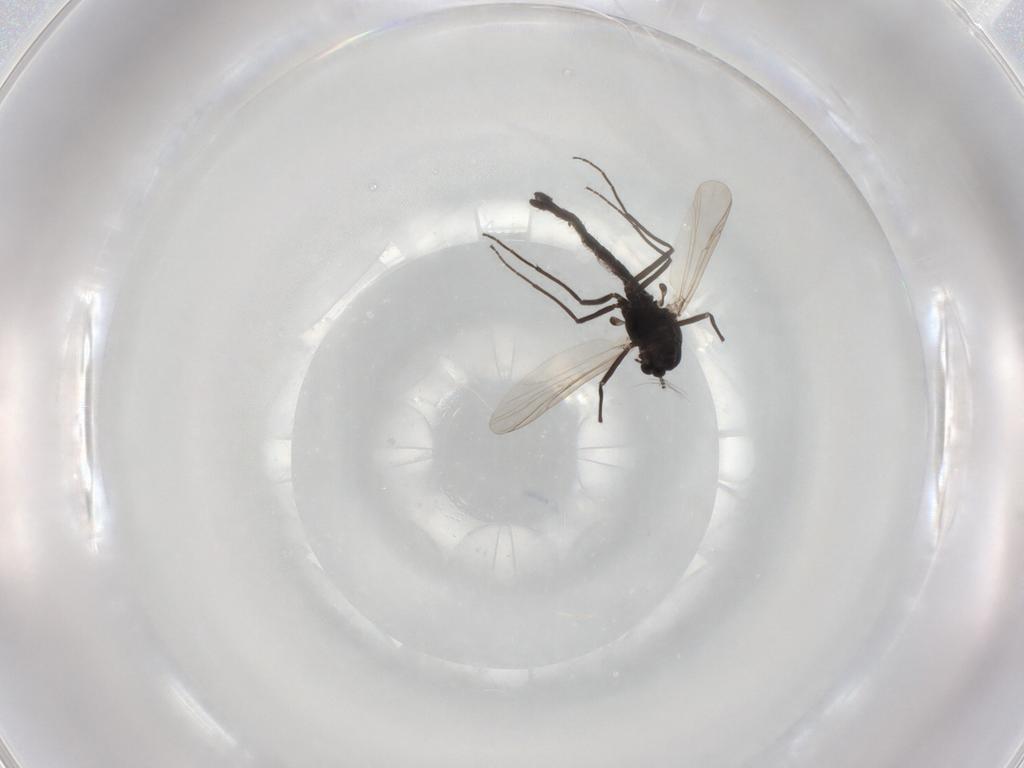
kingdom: Animalia
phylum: Arthropoda
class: Insecta
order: Diptera
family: Chironomidae
